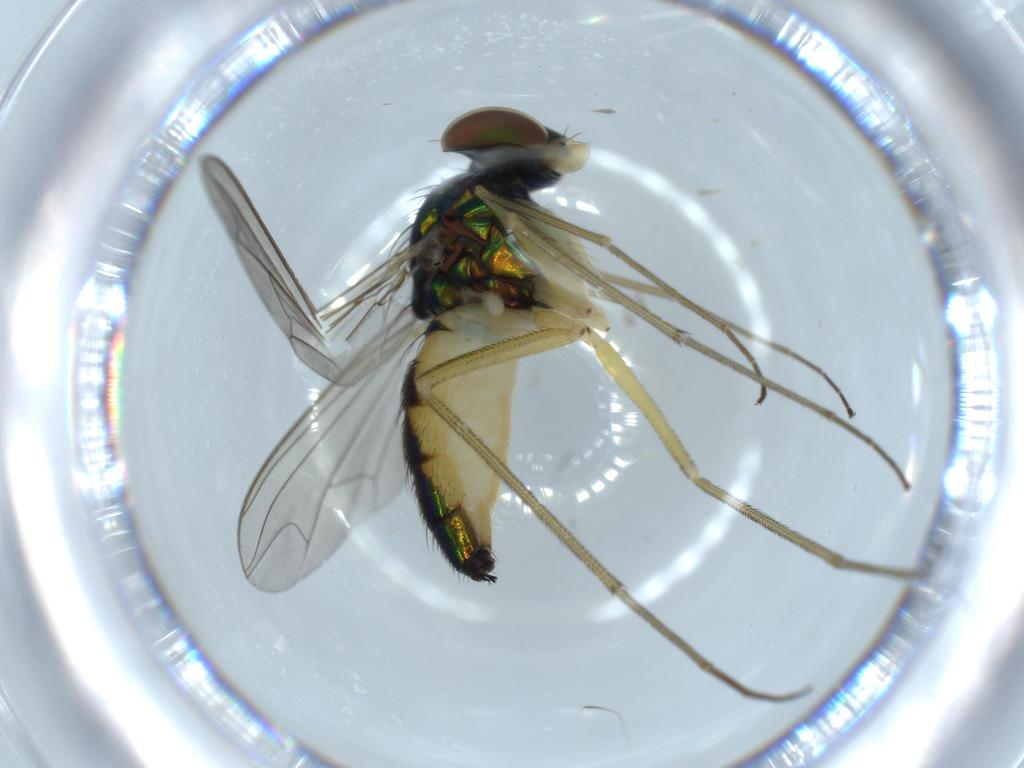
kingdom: Animalia
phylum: Arthropoda
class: Insecta
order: Diptera
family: Dolichopodidae
